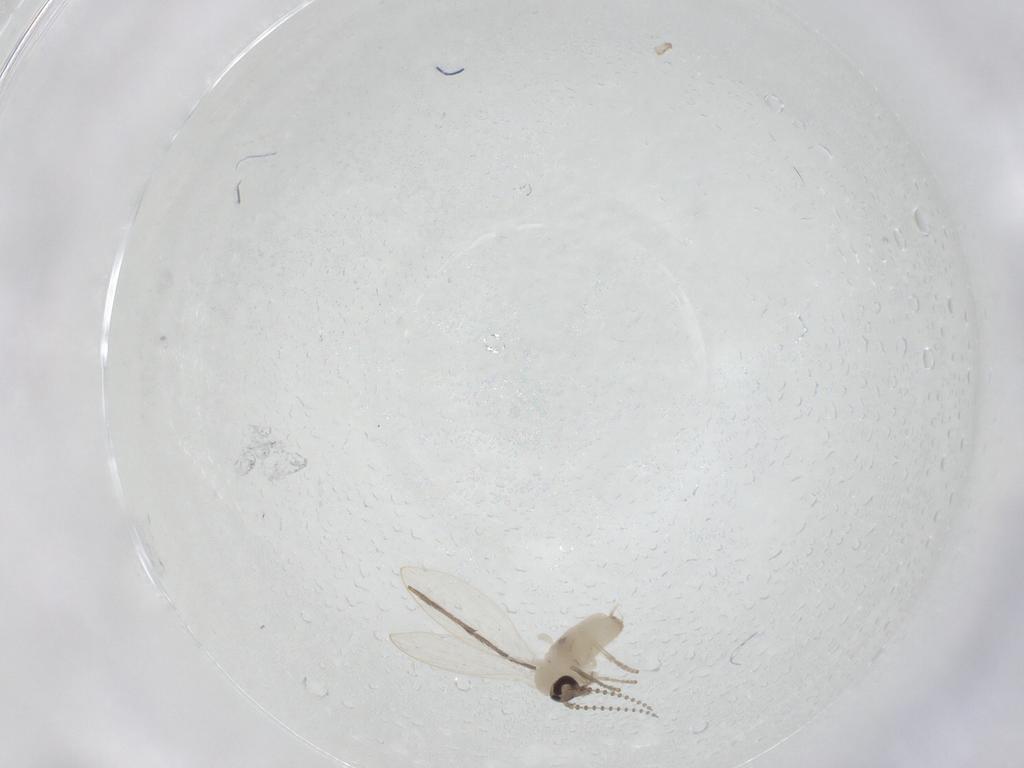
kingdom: Animalia
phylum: Arthropoda
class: Insecta
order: Diptera
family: Psychodidae
